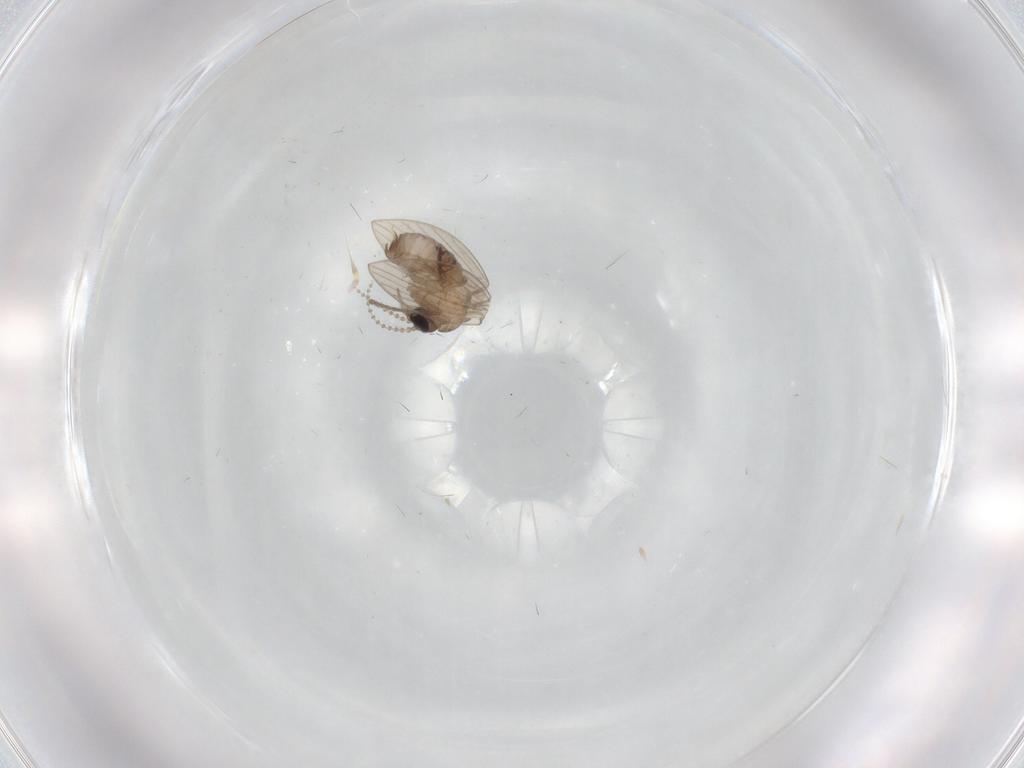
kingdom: Animalia
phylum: Arthropoda
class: Insecta
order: Diptera
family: Psychodidae
